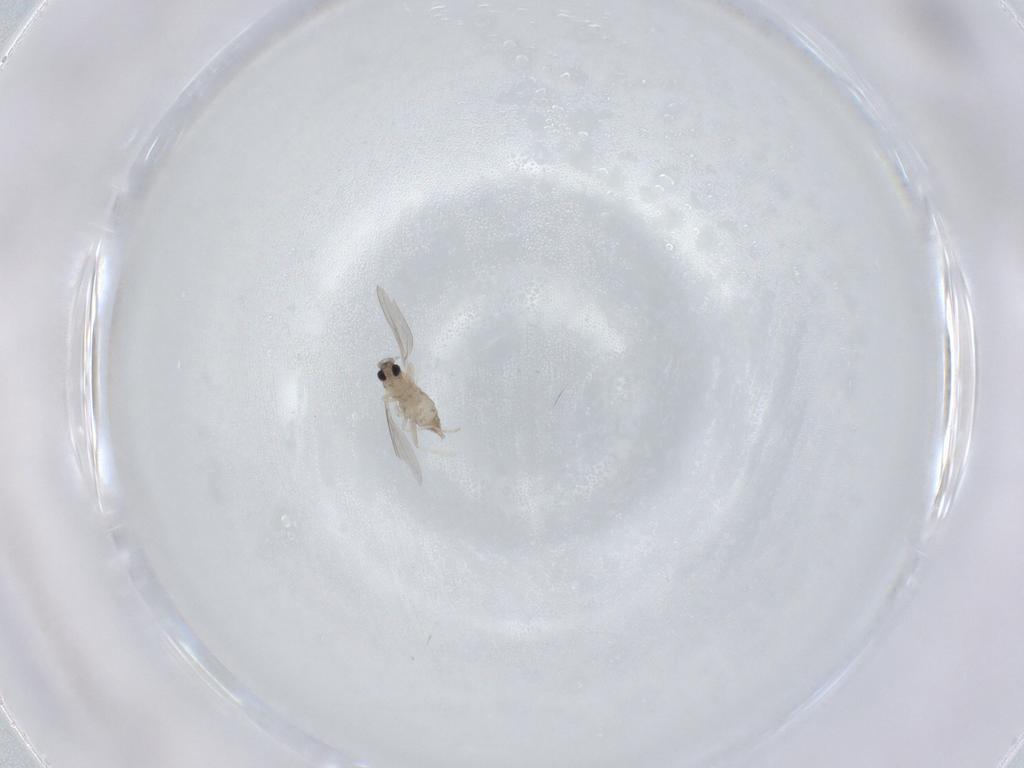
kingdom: Animalia
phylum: Arthropoda
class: Insecta
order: Diptera
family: Cecidomyiidae
